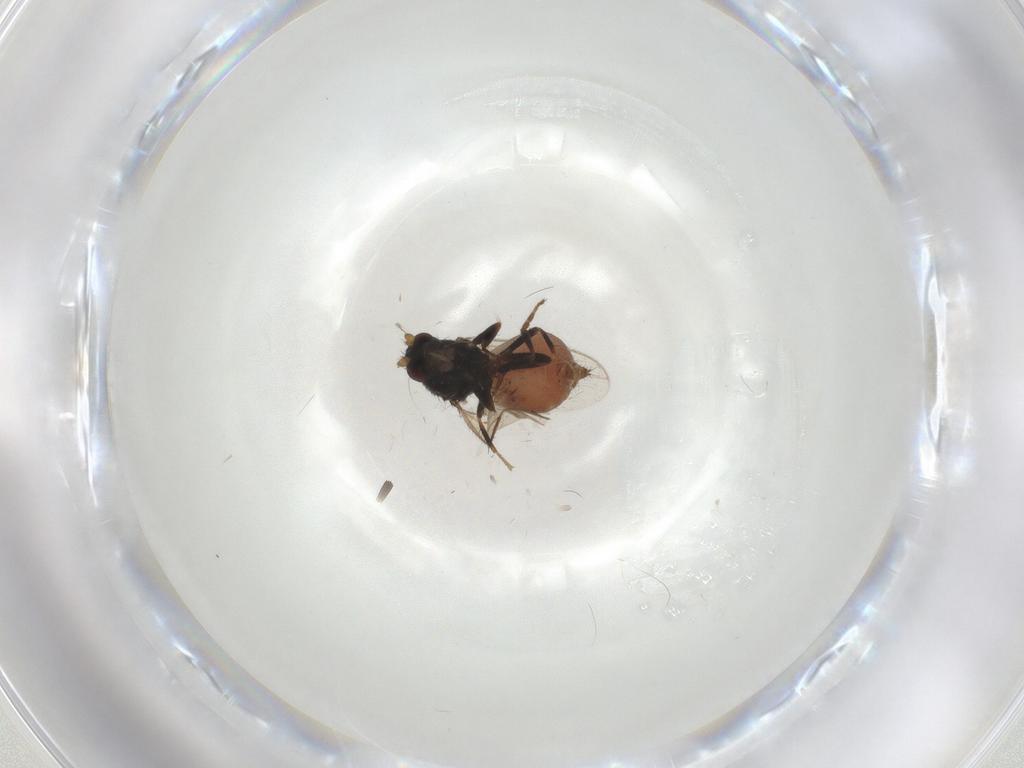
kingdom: Animalia
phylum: Arthropoda
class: Insecta
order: Diptera
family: Sphaeroceridae
